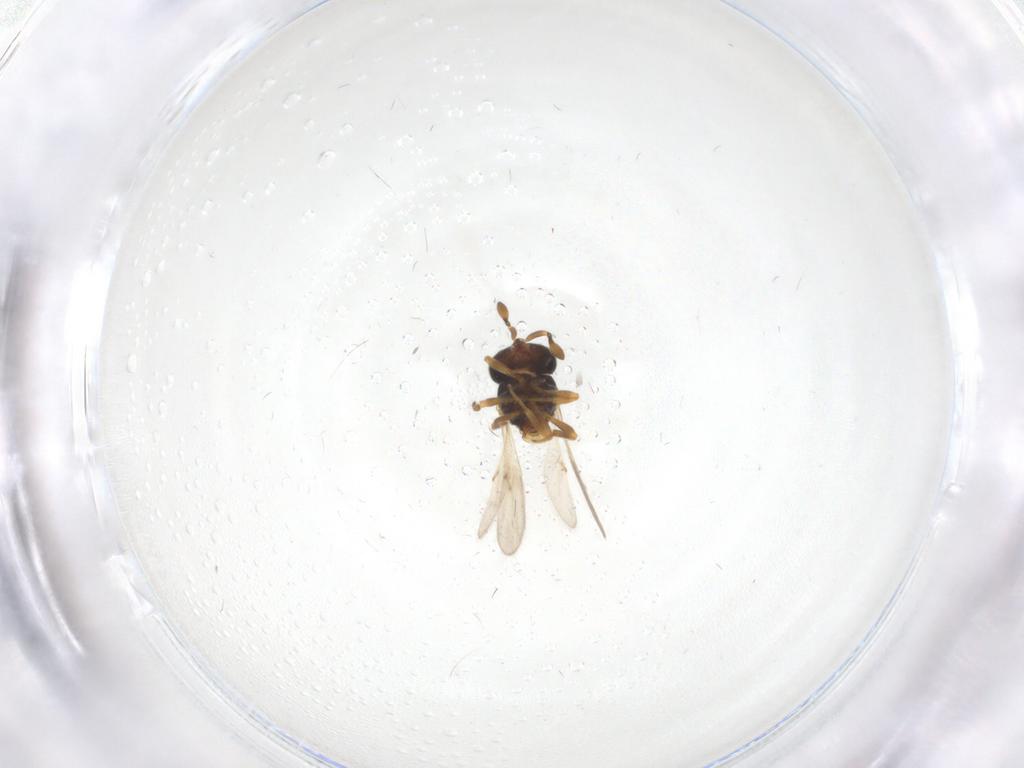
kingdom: Animalia
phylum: Arthropoda
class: Insecta
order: Hymenoptera
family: Scelionidae
